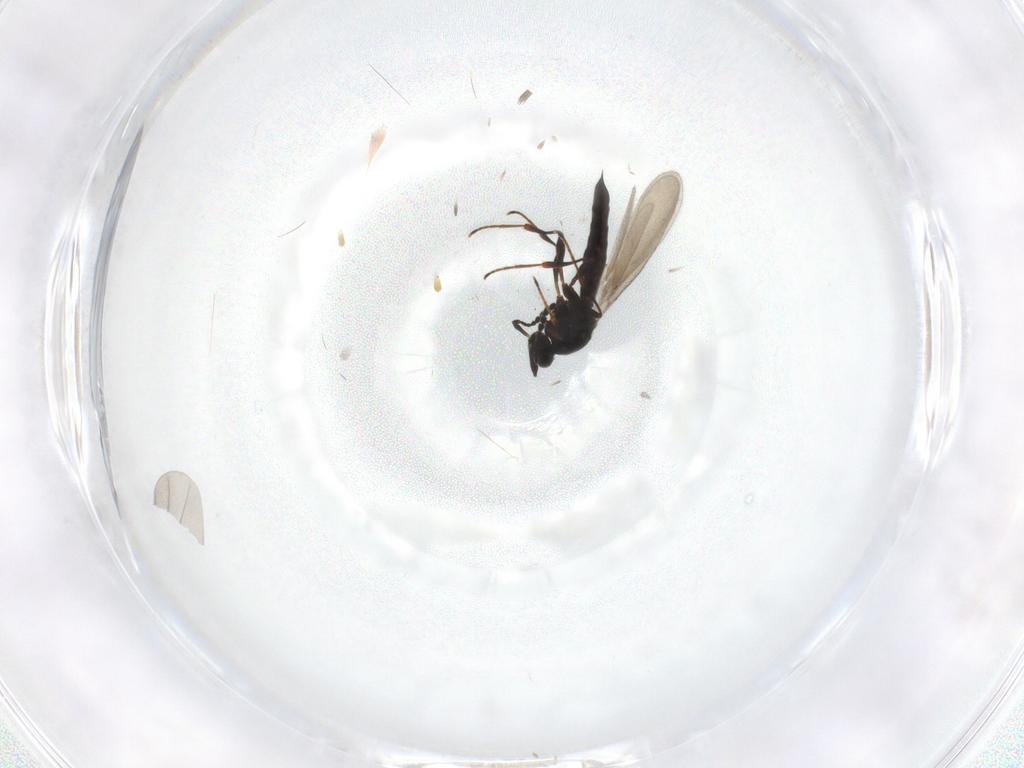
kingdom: Animalia
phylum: Arthropoda
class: Insecta
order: Hymenoptera
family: Platygastridae
